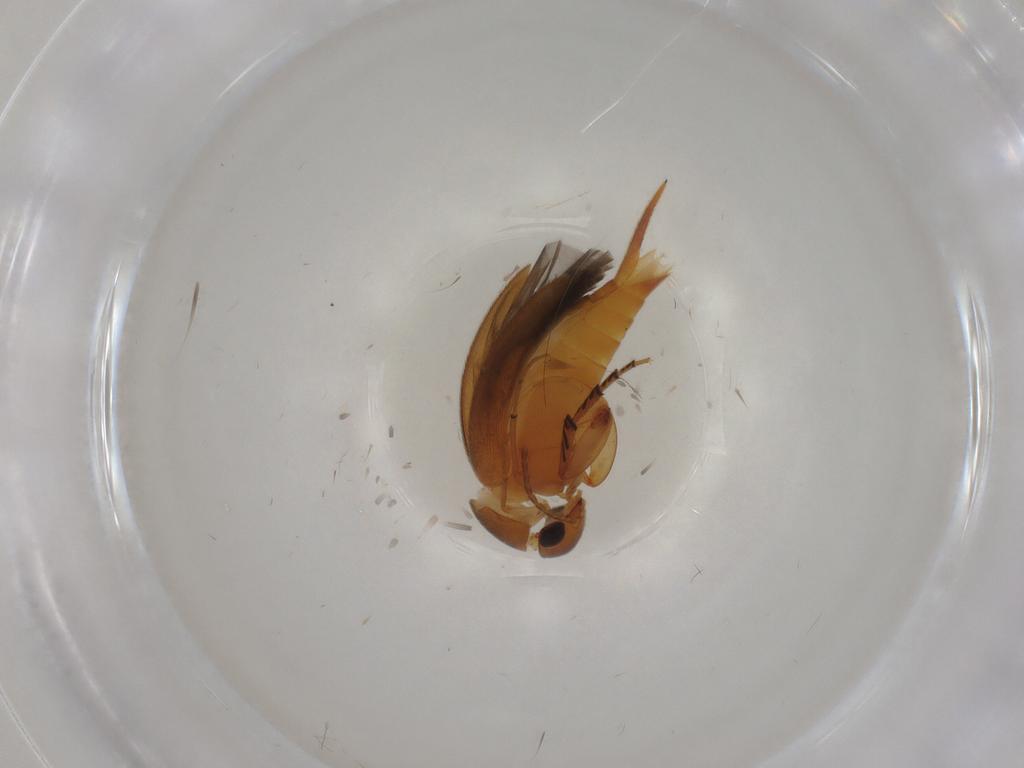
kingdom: Animalia
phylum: Arthropoda
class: Insecta
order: Coleoptera
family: Mordellidae
